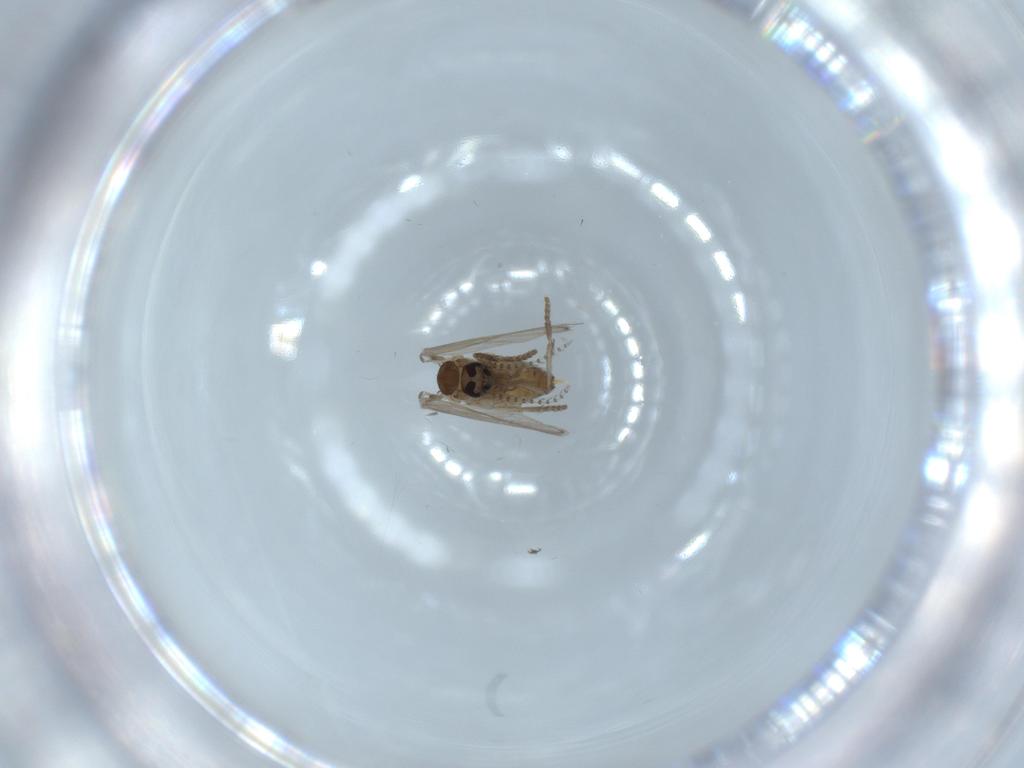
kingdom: Animalia
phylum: Arthropoda
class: Insecta
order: Diptera
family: Psychodidae
